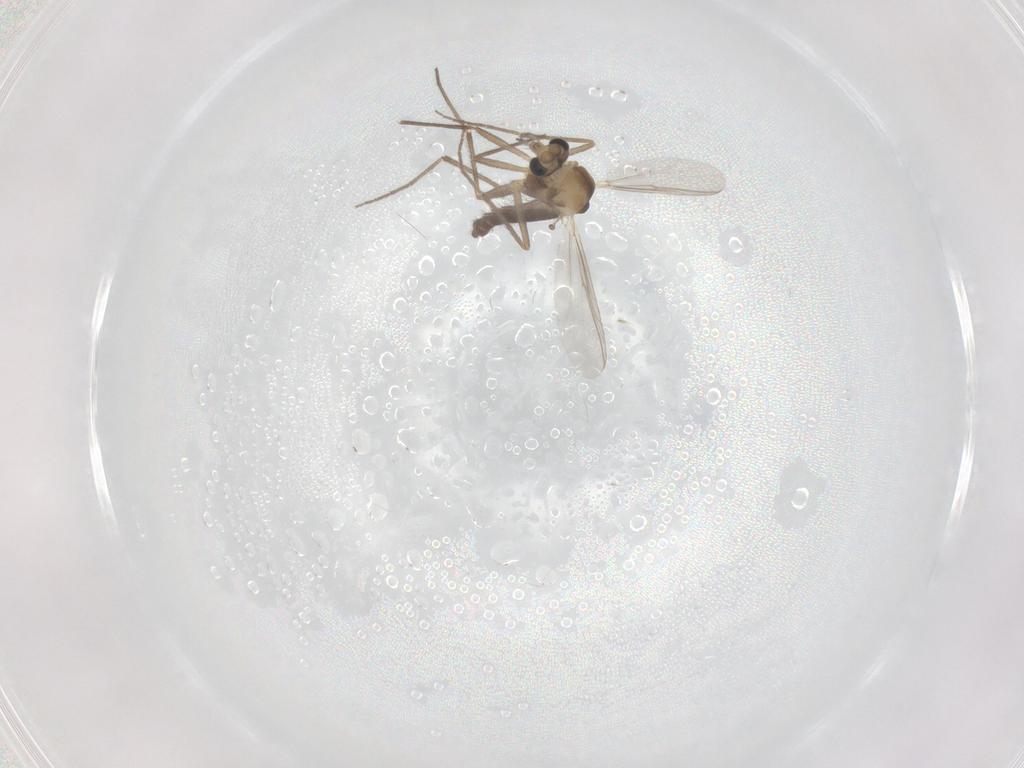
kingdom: Animalia
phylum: Arthropoda
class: Insecta
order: Diptera
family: Chironomidae
